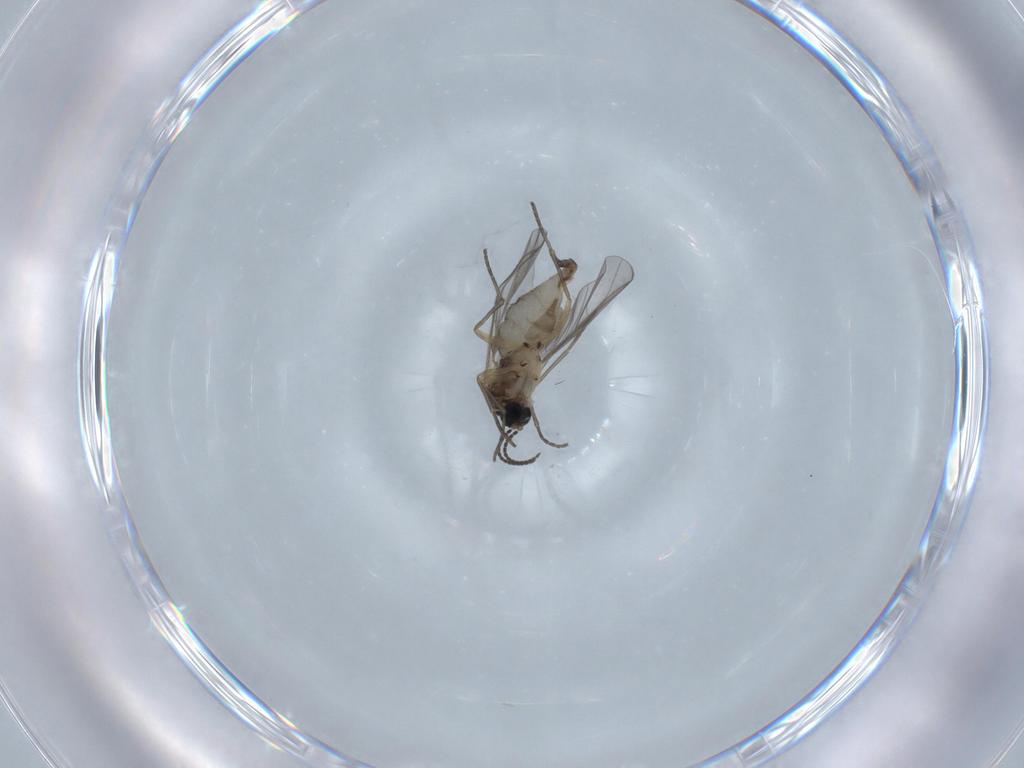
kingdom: Animalia
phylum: Arthropoda
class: Insecta
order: Diptera
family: Sciaridae
